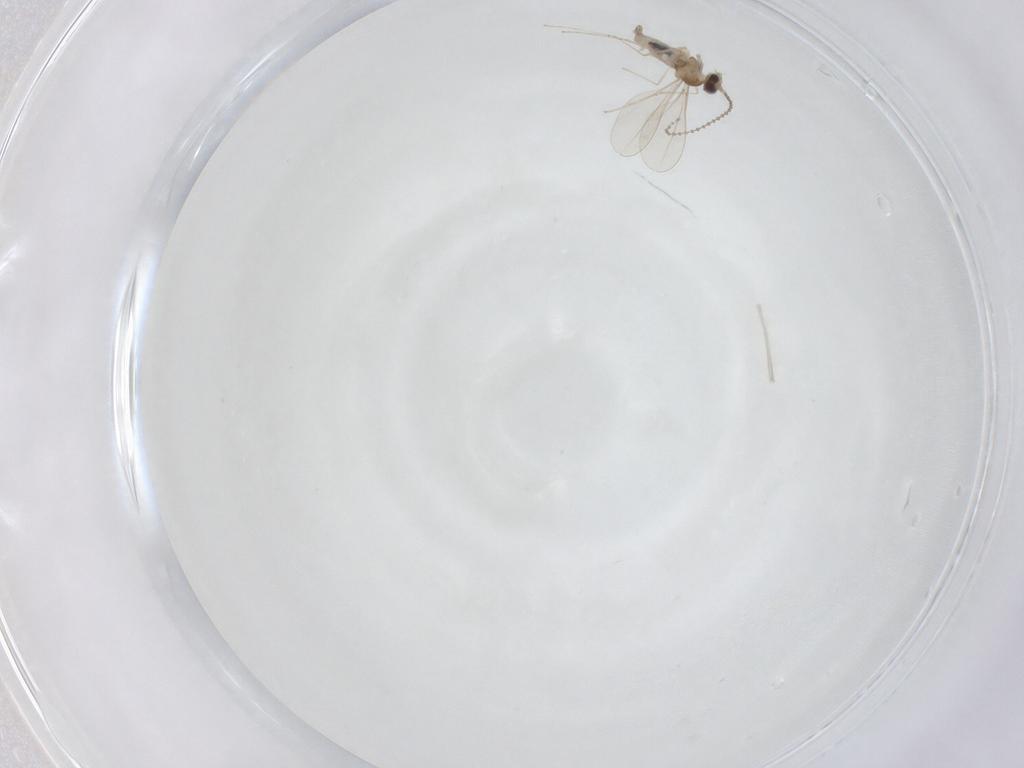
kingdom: Animalia
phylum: Arthropoda
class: Insecta
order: Diptera
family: Cecidomyiidae
